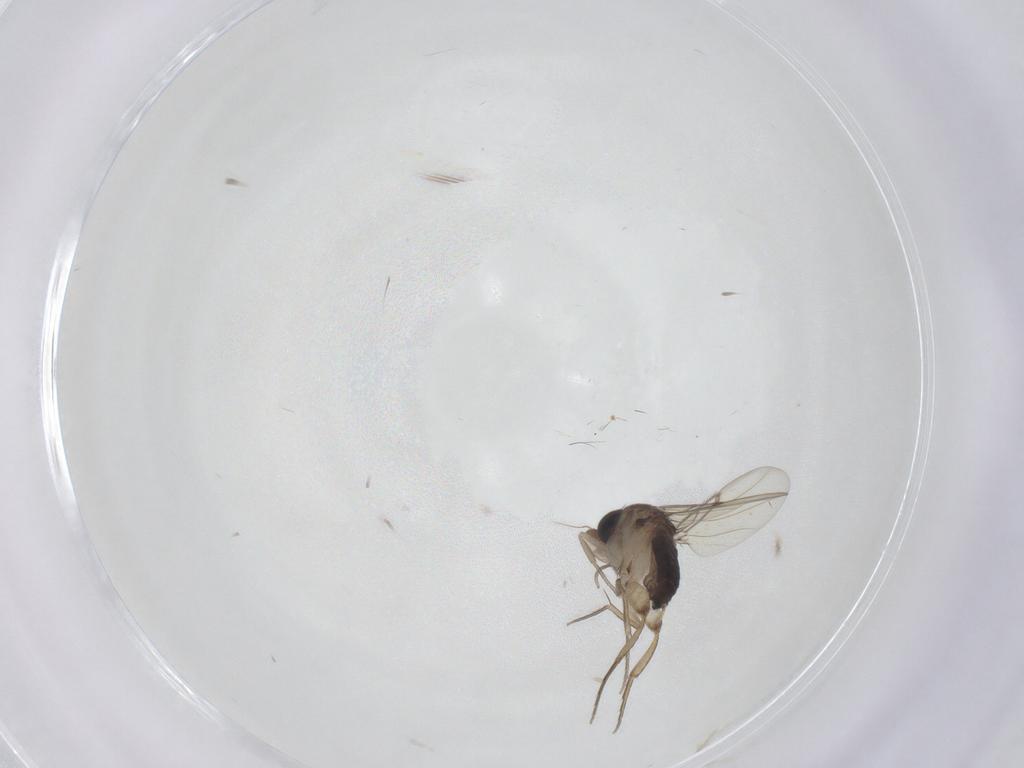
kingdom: Animalia
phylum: Arthropoda
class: Insecta
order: Diptera
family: Phoridae
